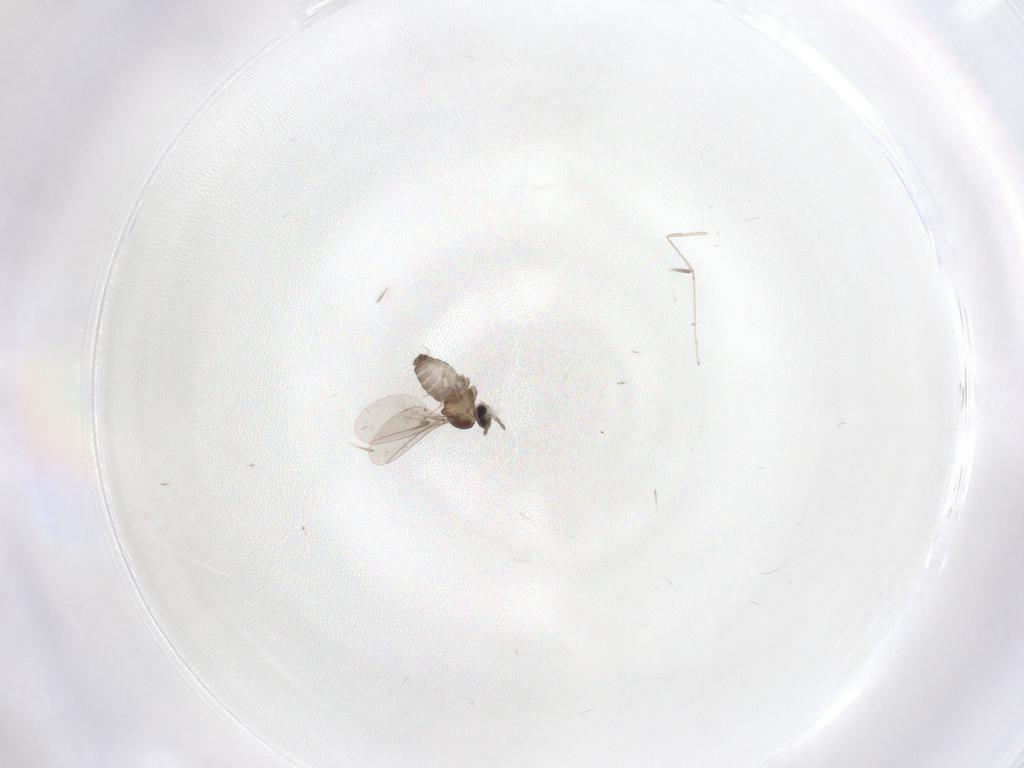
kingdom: Animalia
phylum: Arthropoda
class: Insecta
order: Diptera
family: Cecidomyiidae
